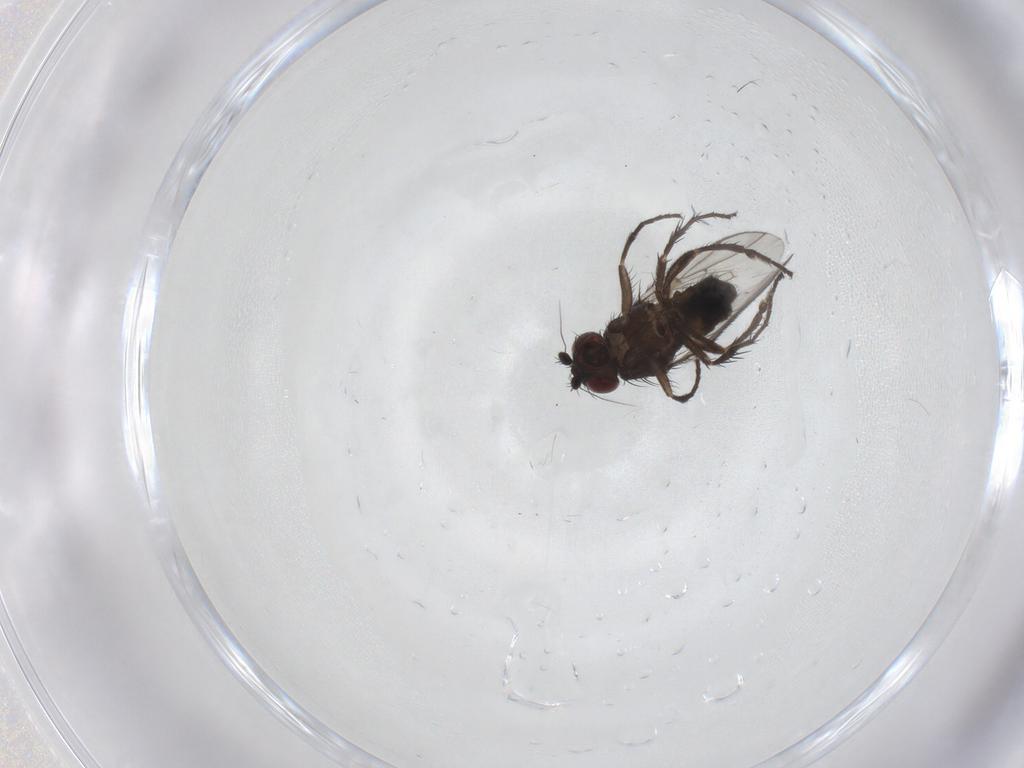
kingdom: Animalia
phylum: Arthropoda
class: Insecta
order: Diptera
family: Sphaeroceridae
